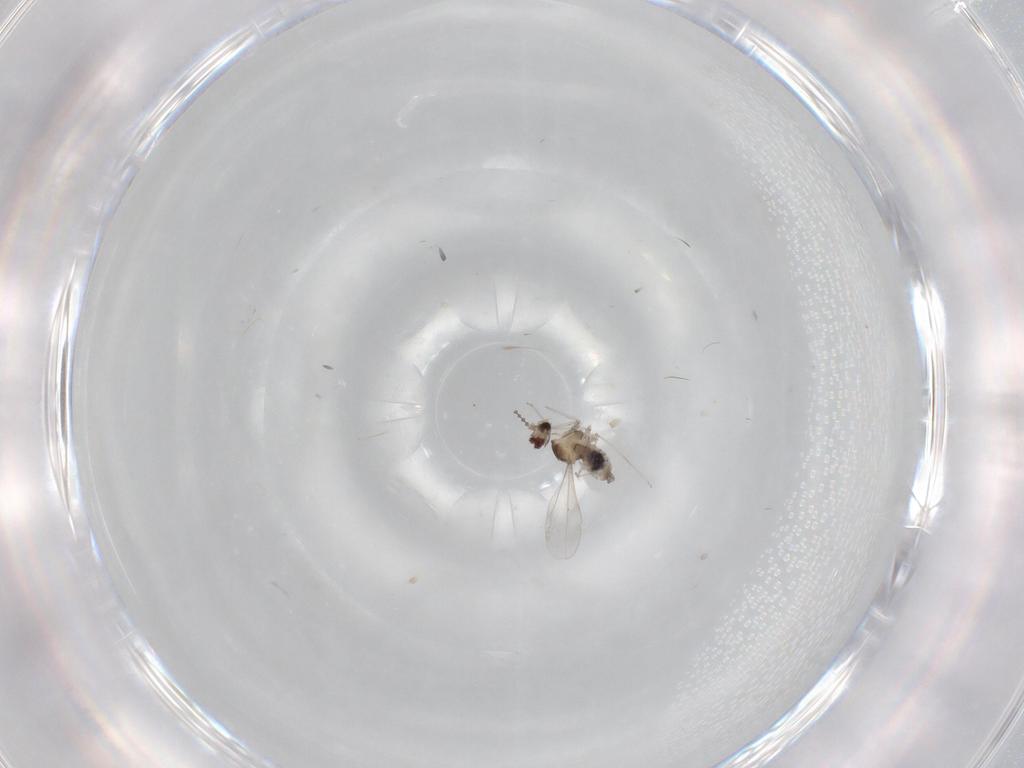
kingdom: Animalia
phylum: Arthropoda
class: Insecta
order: Diptera
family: Cecidomyiidae
